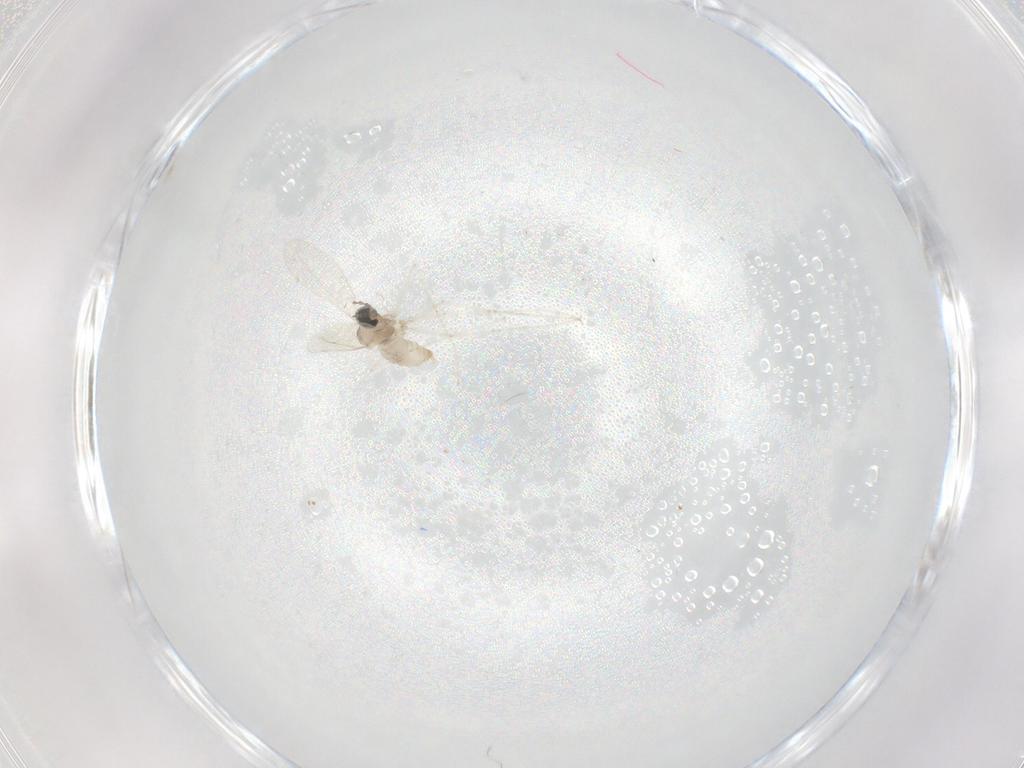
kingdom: Animalia
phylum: Arthropoda
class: Insecta
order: Diptera
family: Cecidomyiidae
